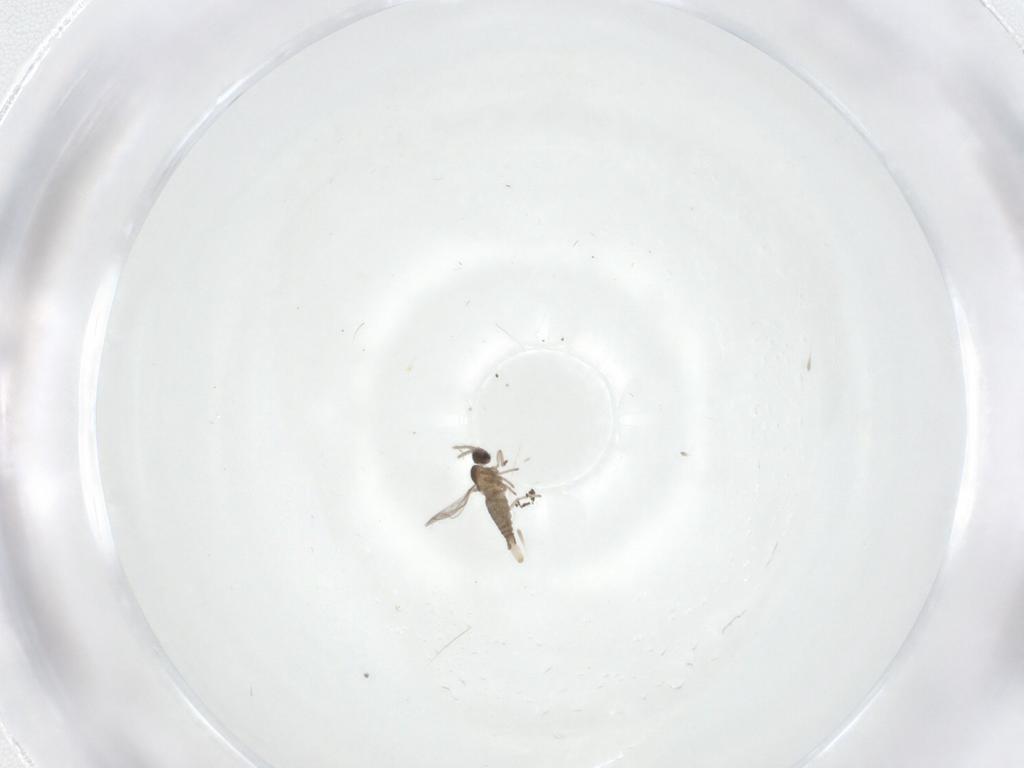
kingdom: Animalia
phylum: Arthropoda
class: Insecta
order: Diptera
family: Cecidomyiidae
